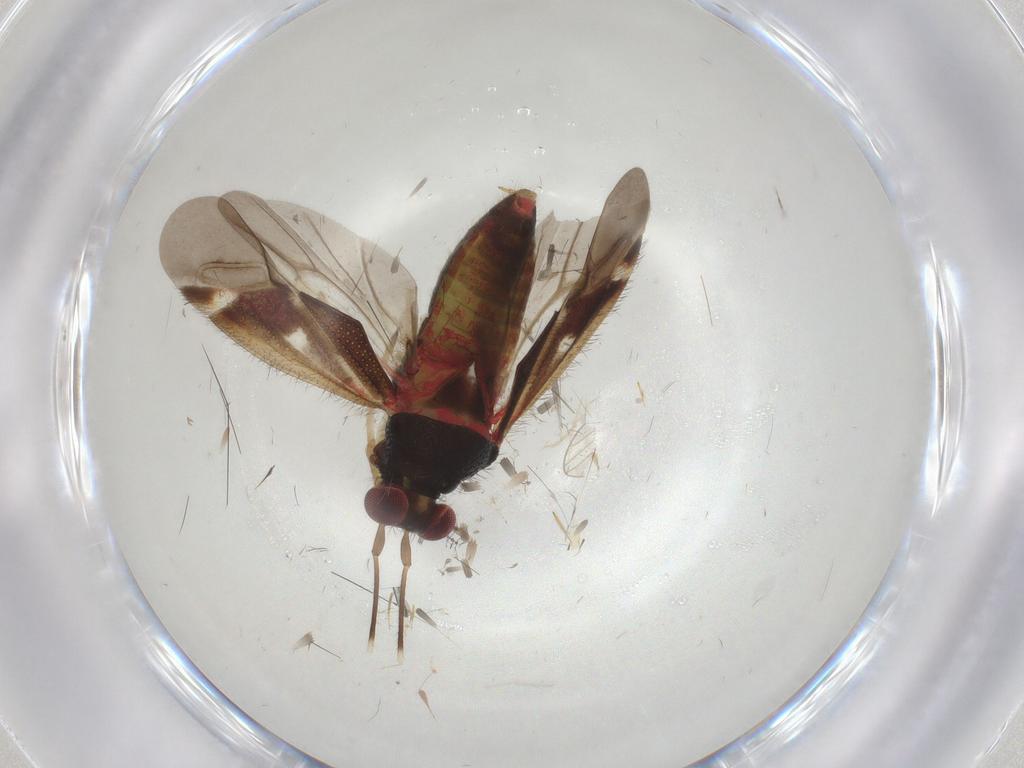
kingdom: Animalia
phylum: Arthropoda
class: Insecta
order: Hemiptera
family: Miridae
